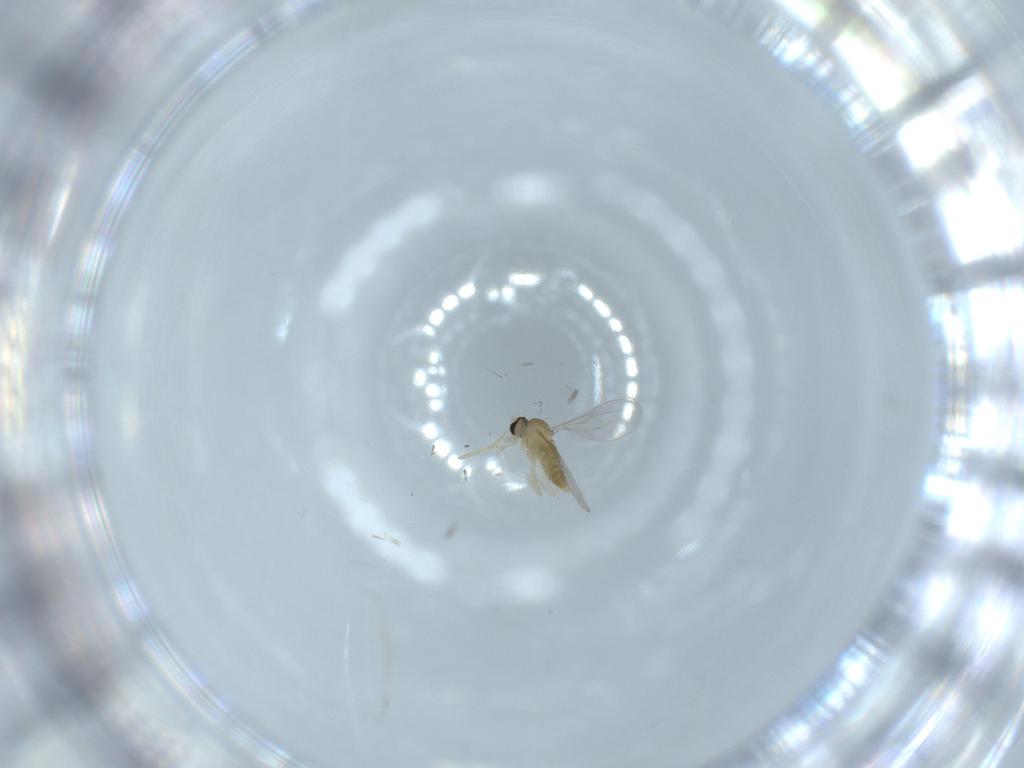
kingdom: Animalia
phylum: Arthropoda
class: Insecta
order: Diptera
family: Cecidomyiidae
